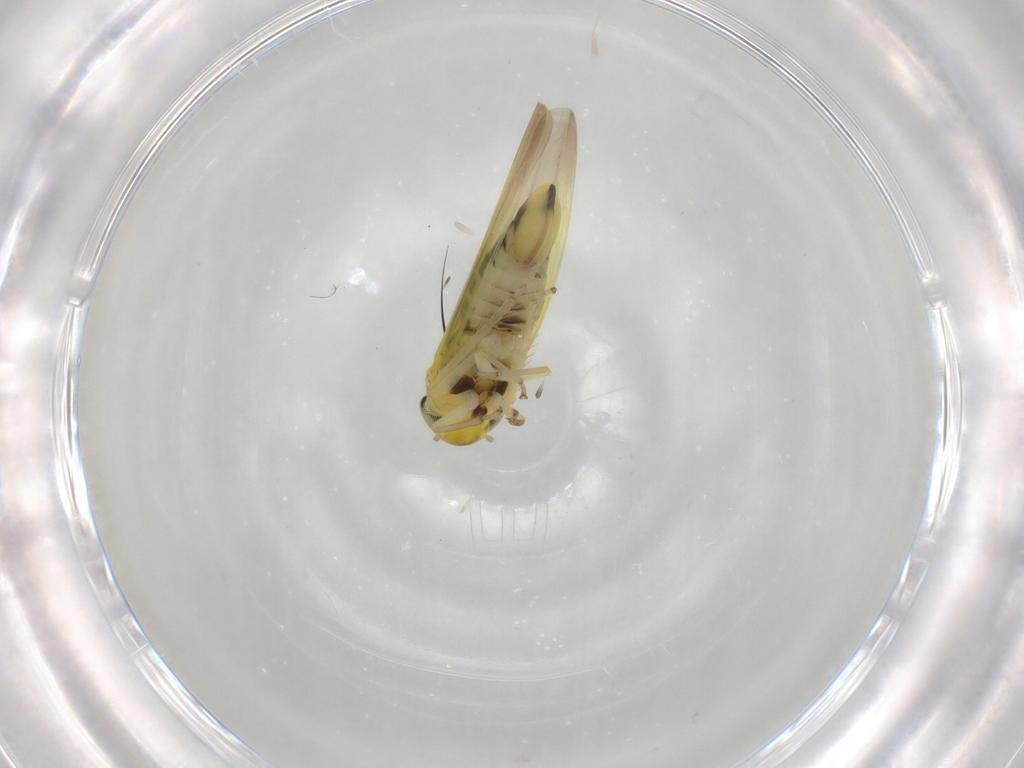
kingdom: Animalia
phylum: Arthropoda
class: Insecta
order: Hemiptera
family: Cicadellidae
